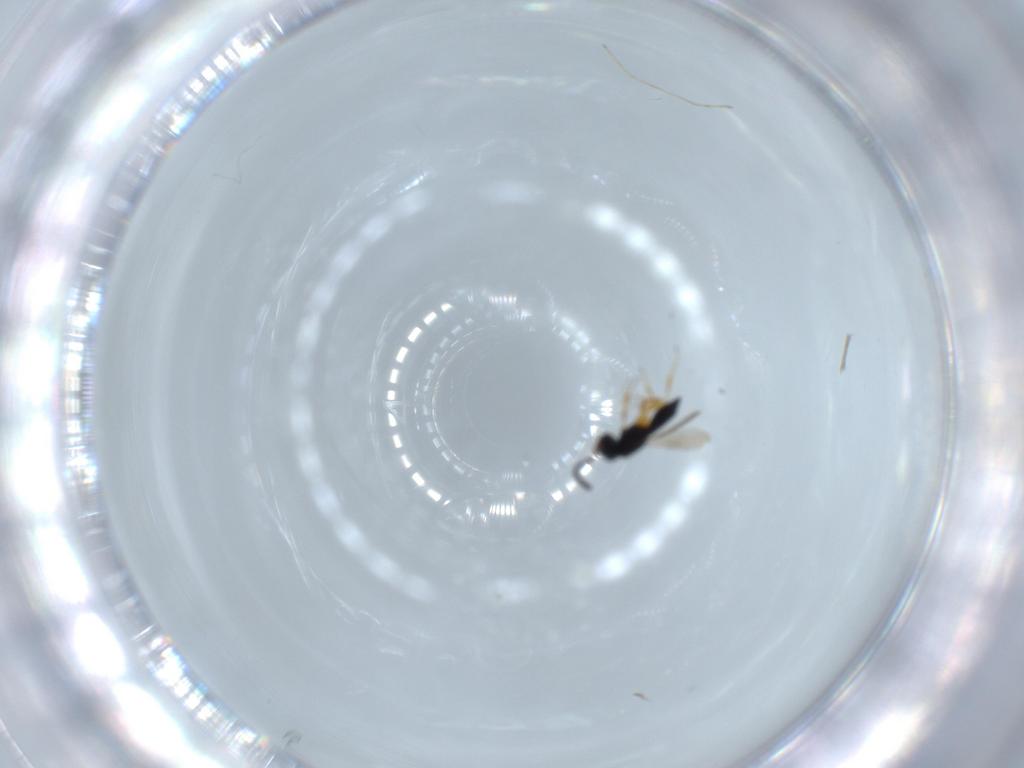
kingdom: Animalia
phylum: Arthropoda
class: Insecta
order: Hymenoptera
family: Scelionidae
